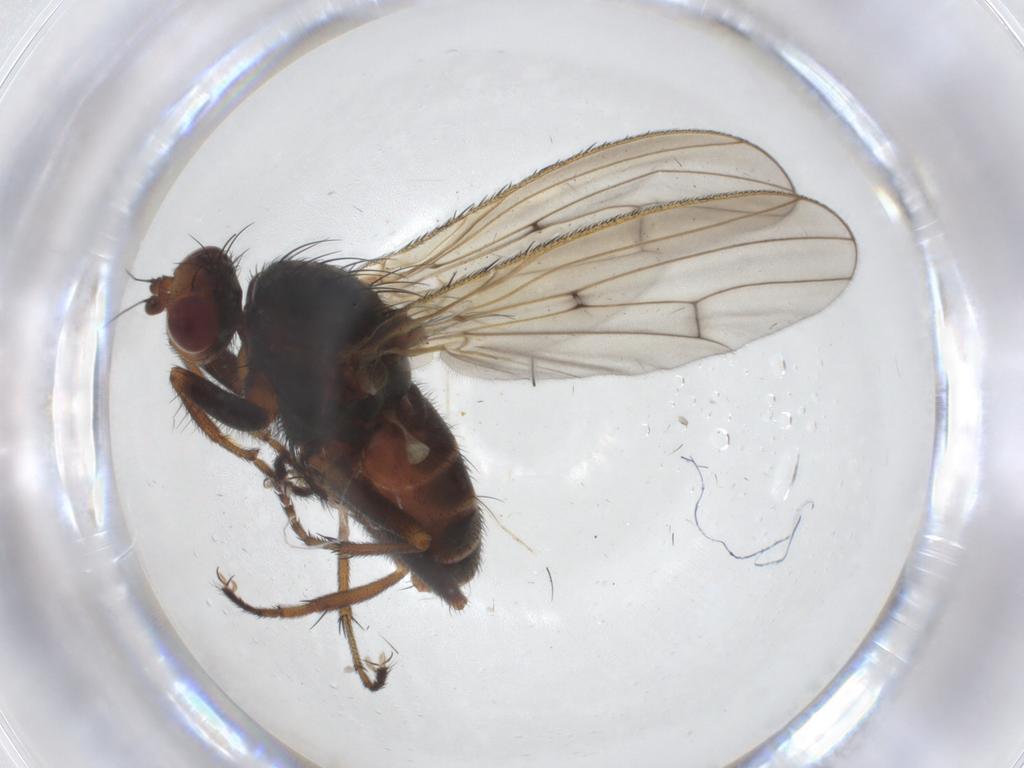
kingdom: Animalia
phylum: Arthropoda
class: Insecta
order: Diptera
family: Heleomyzidae
